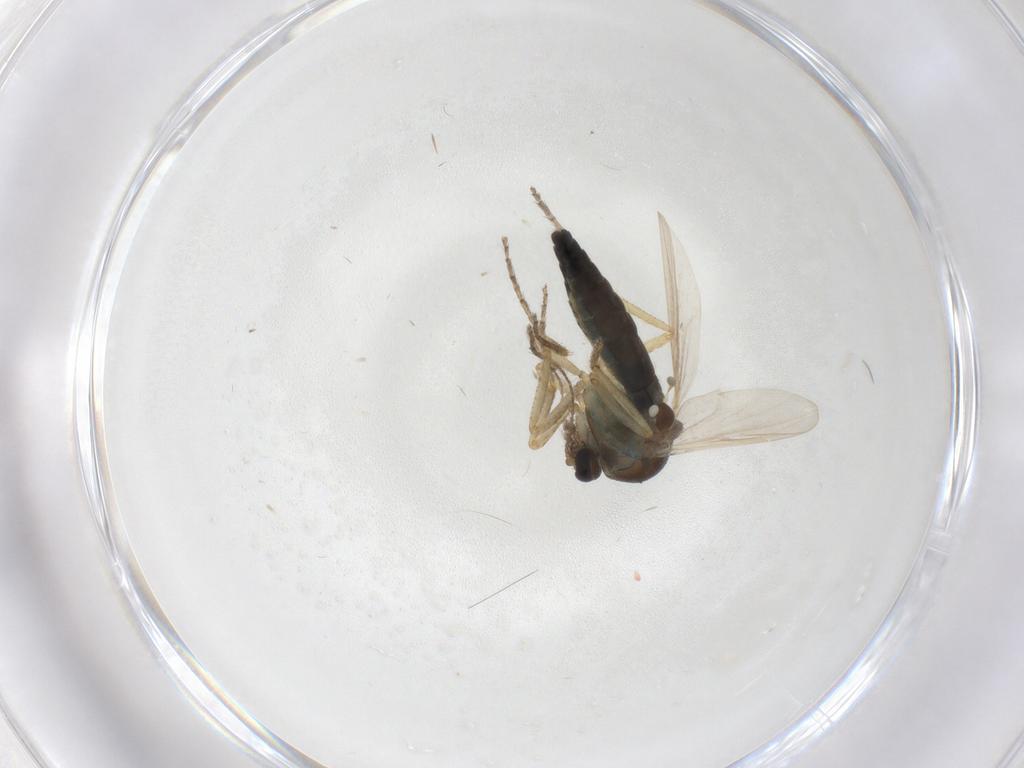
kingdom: Animalia
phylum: Arthropoda
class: Insecta
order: Diptera
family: Ceratopogonidae
